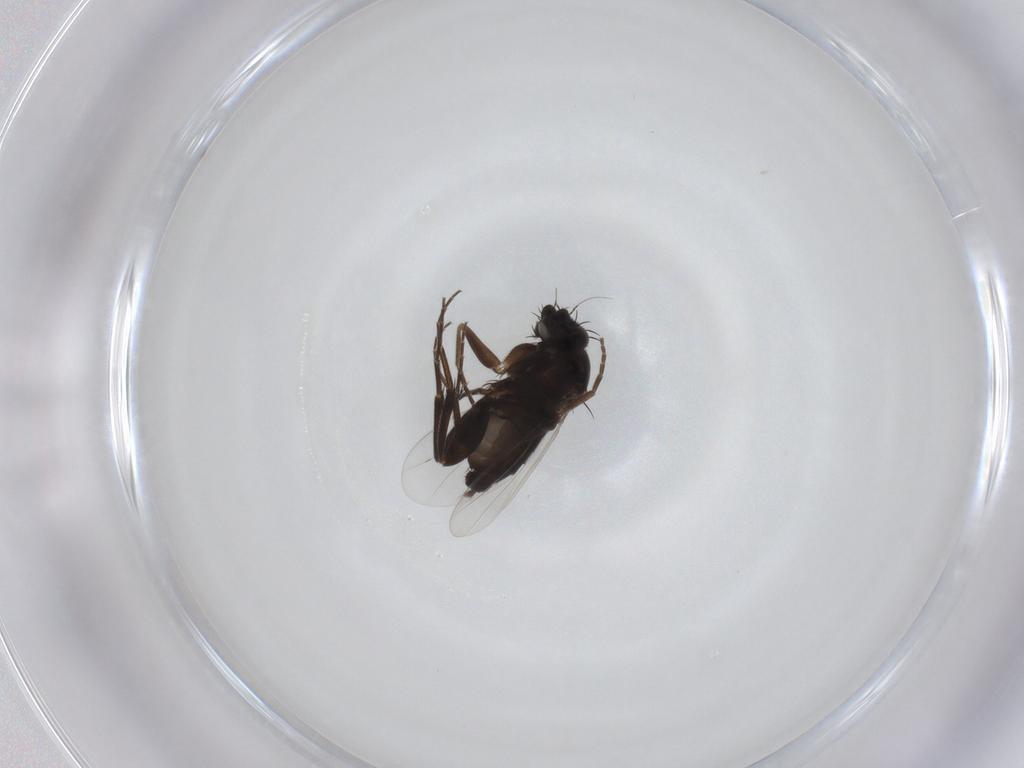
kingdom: Animalia
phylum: Arthropoda
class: Insecta
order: Diptera
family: Phoridae
